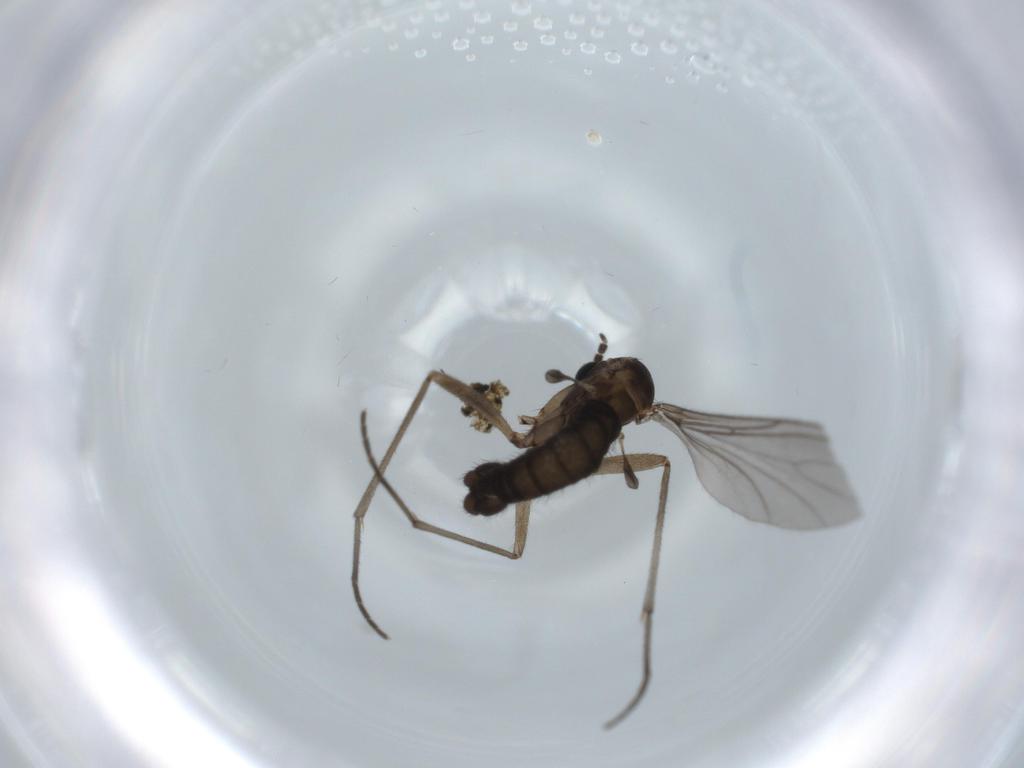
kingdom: Animalia
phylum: Arthropoda
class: Insecta
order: Diptera
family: Sciaridae
